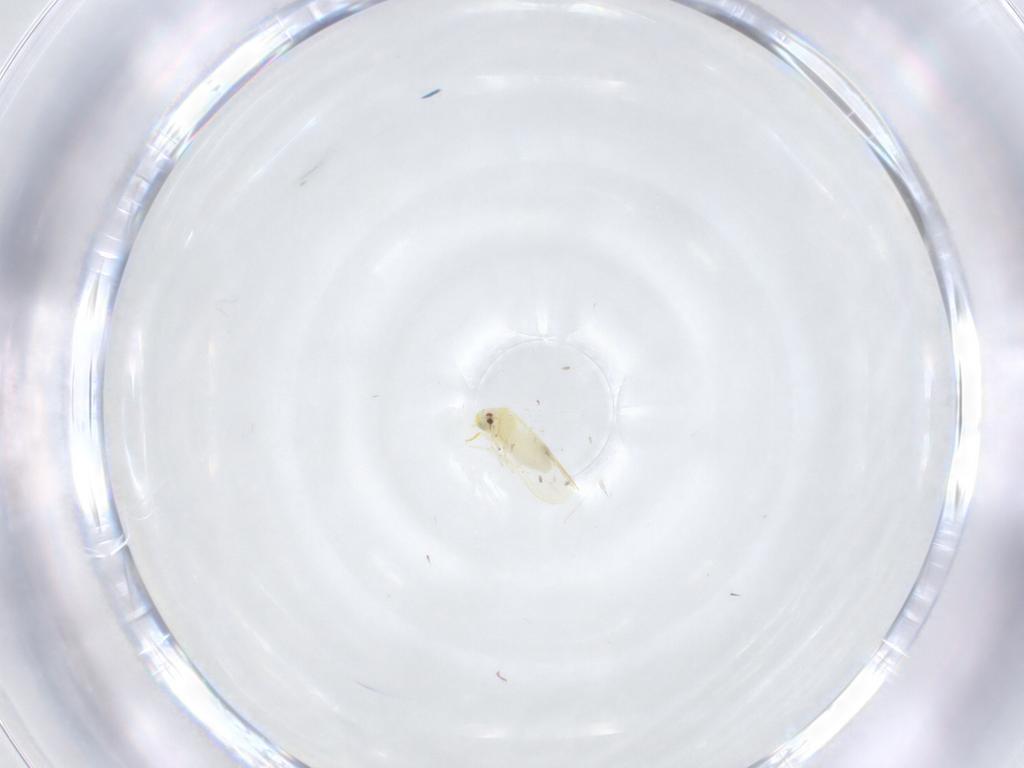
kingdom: Animalia
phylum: Arthropoda
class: Insecta
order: Hemiptera
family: Aleyrodidae
